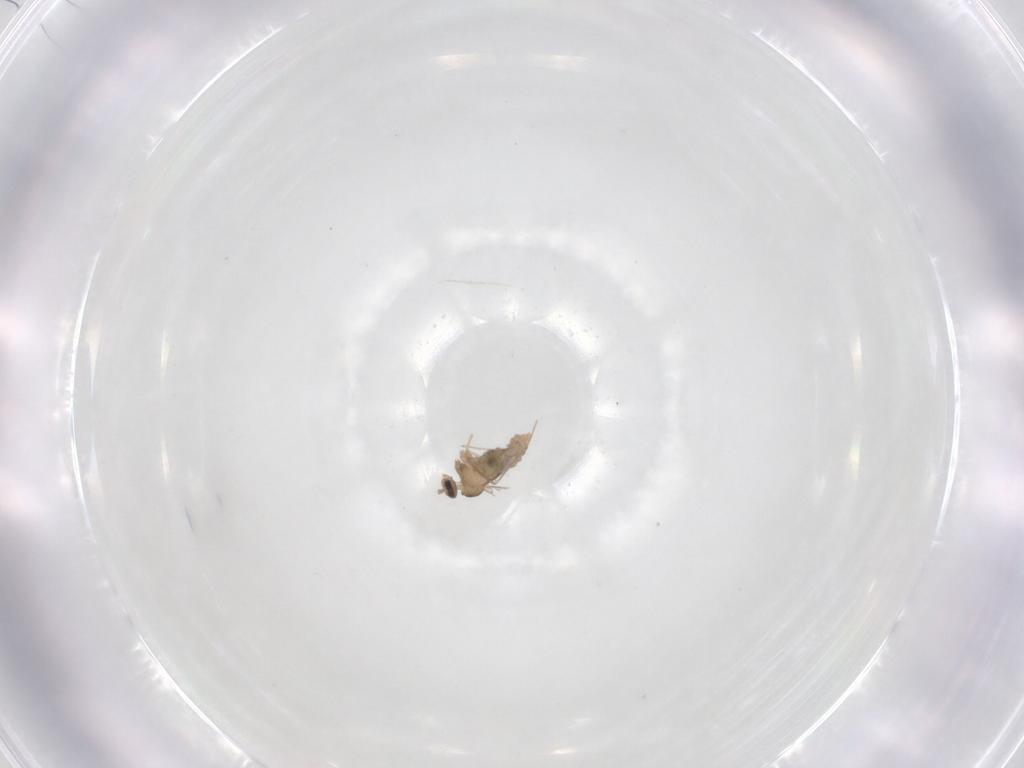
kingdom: Animalia
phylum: Arthropoda
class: Insecta
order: Diptera
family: Cecidomyiidae
